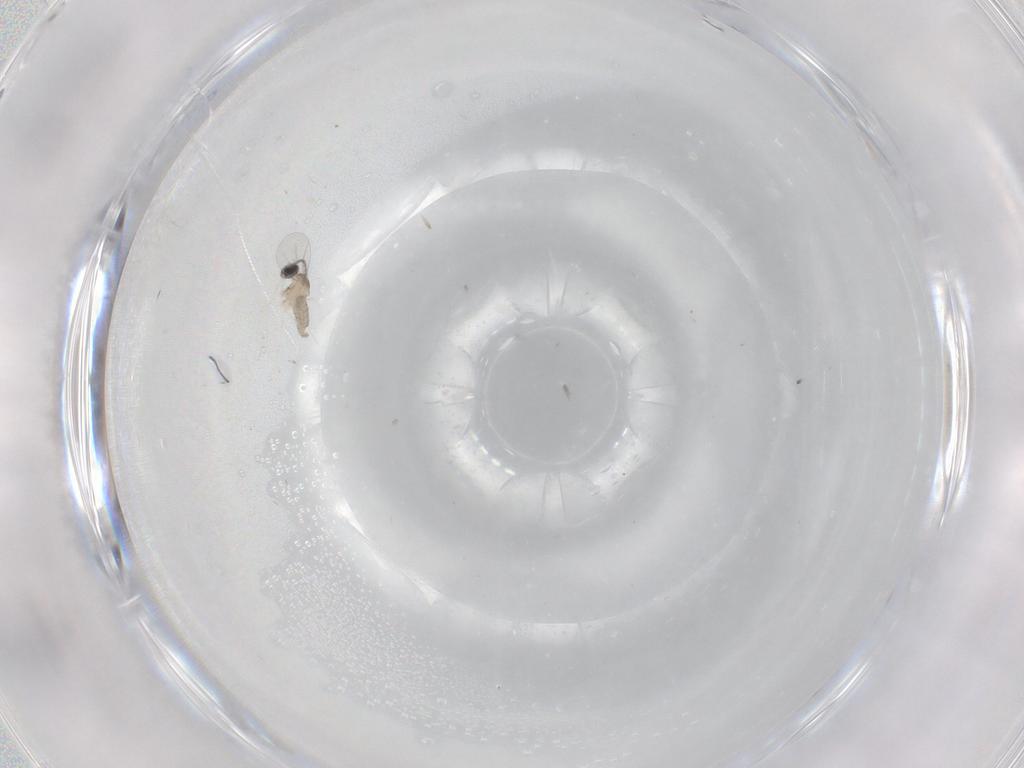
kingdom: Animalia
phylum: Arthropoda
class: Insecta
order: Diptera
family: Cecidomyiidae
